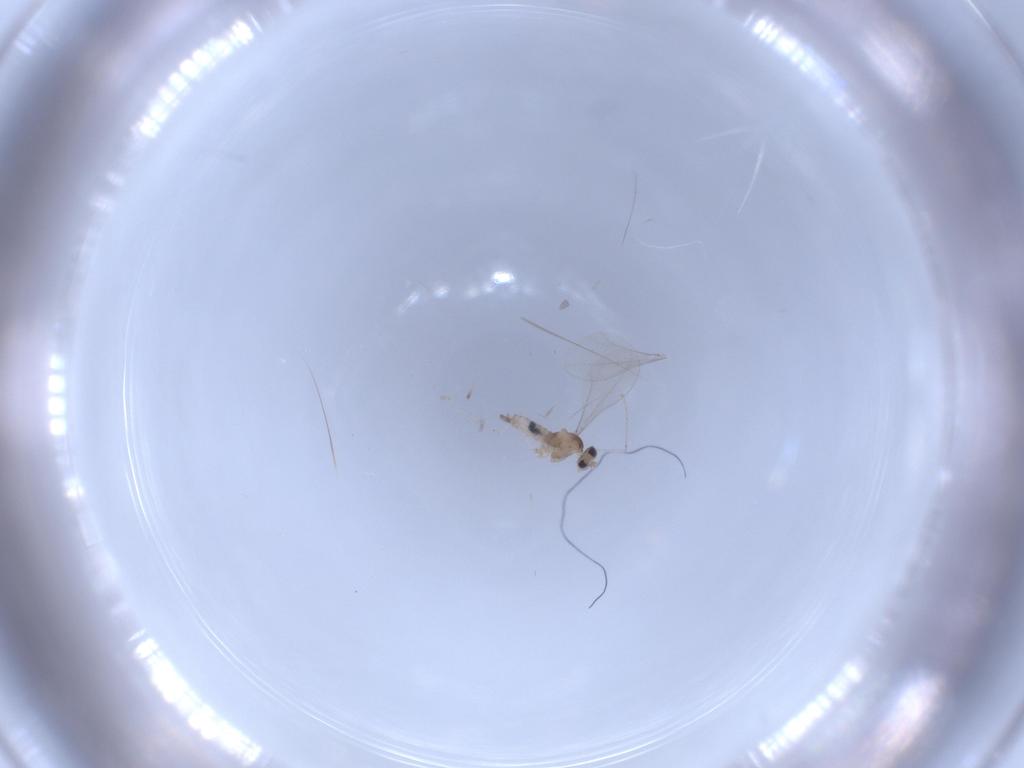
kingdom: Animalia
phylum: Arthropoda
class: Insecta
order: Diptera
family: Cecidomyiidae
